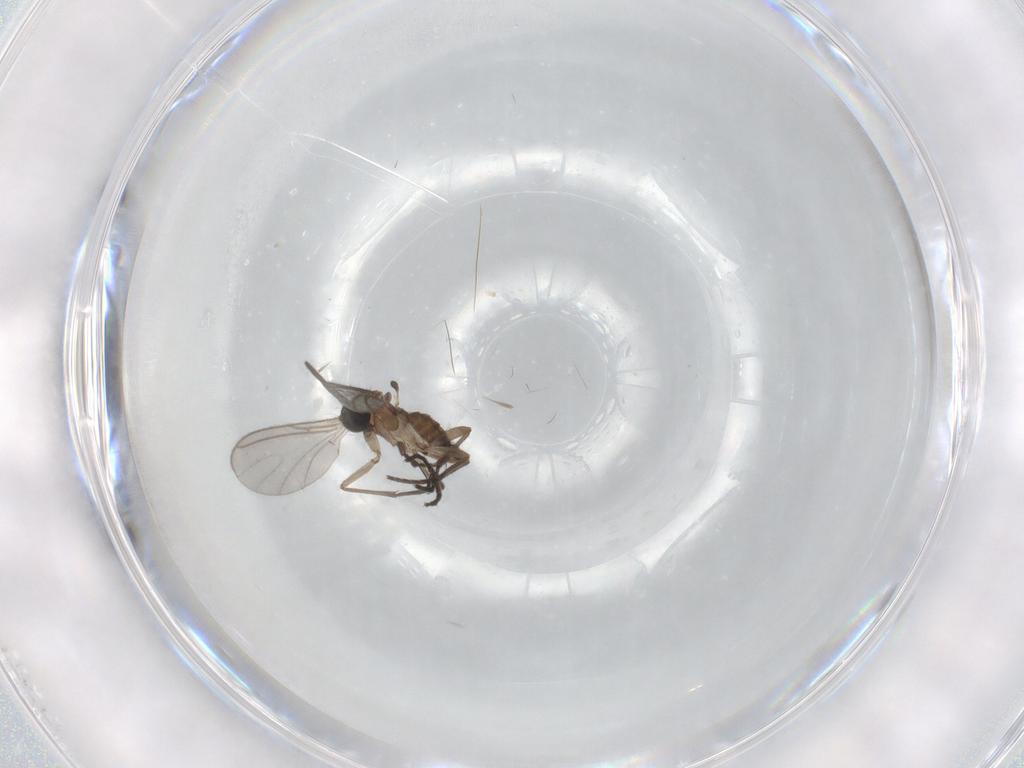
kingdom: Animalia
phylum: Arthropoda
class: Insecta
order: Diptera
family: Sciaridae
